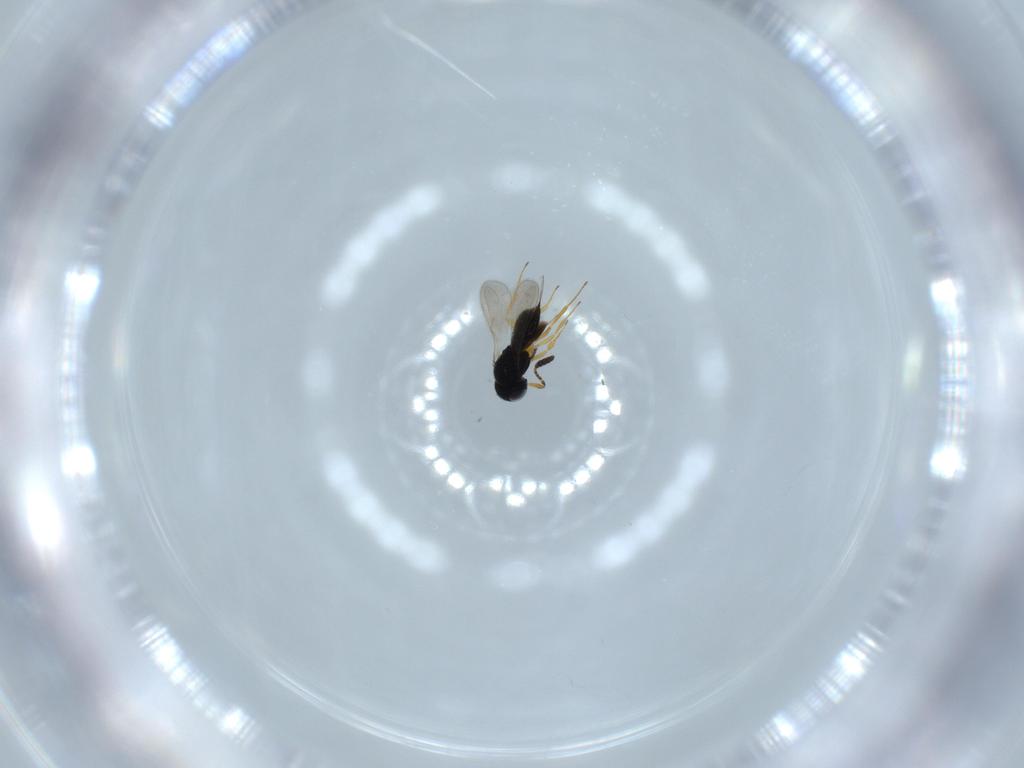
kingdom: Animalia
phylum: Arthropoda
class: Insecta
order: Hymenoptera
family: Scelionidae
